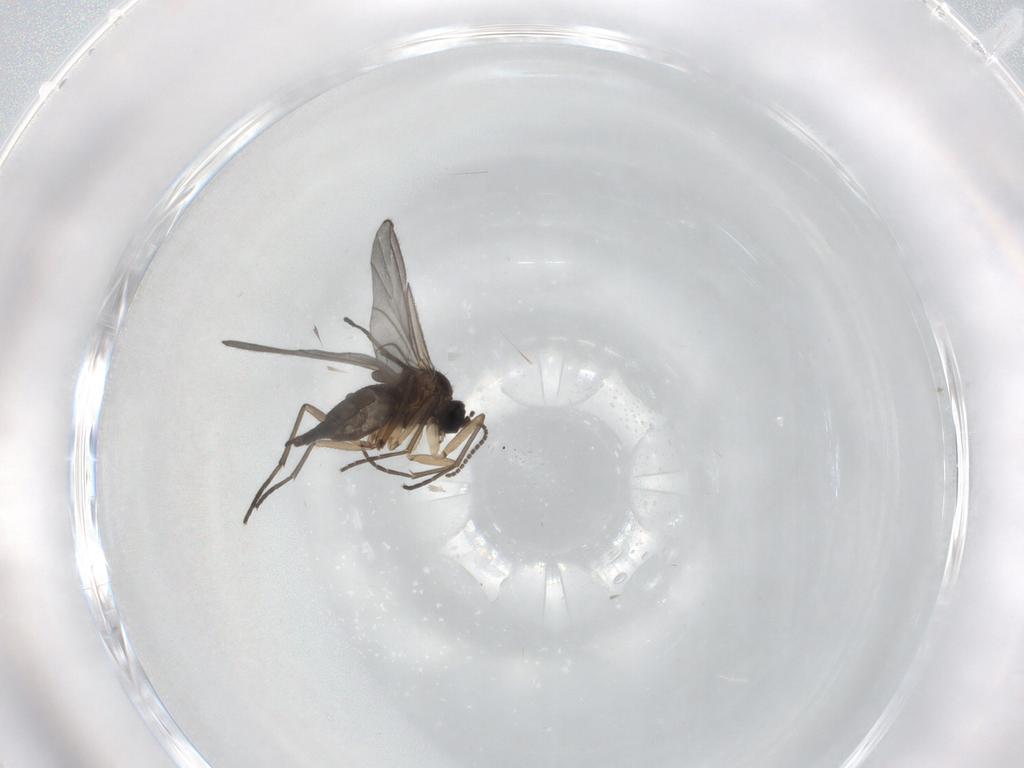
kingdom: Animalia
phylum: Arthropoda
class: Insecta
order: Diptera
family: Sciaridae
